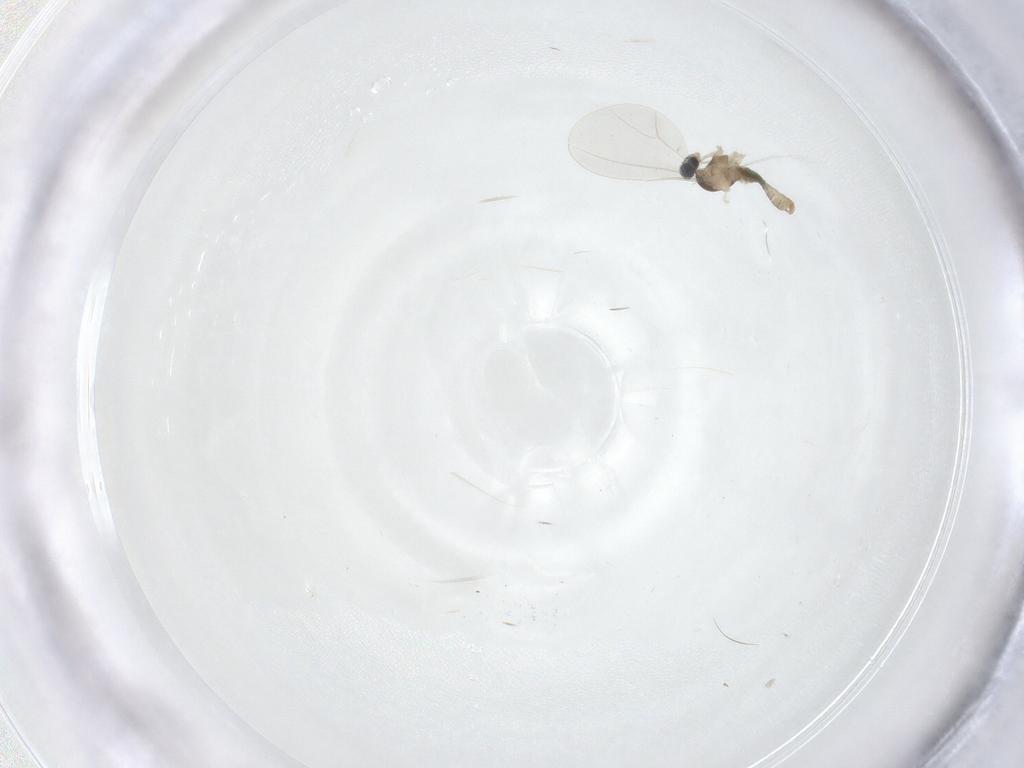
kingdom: Animalia
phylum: Arthropoda
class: Insecta
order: Diptera
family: Cecidomyiidae
